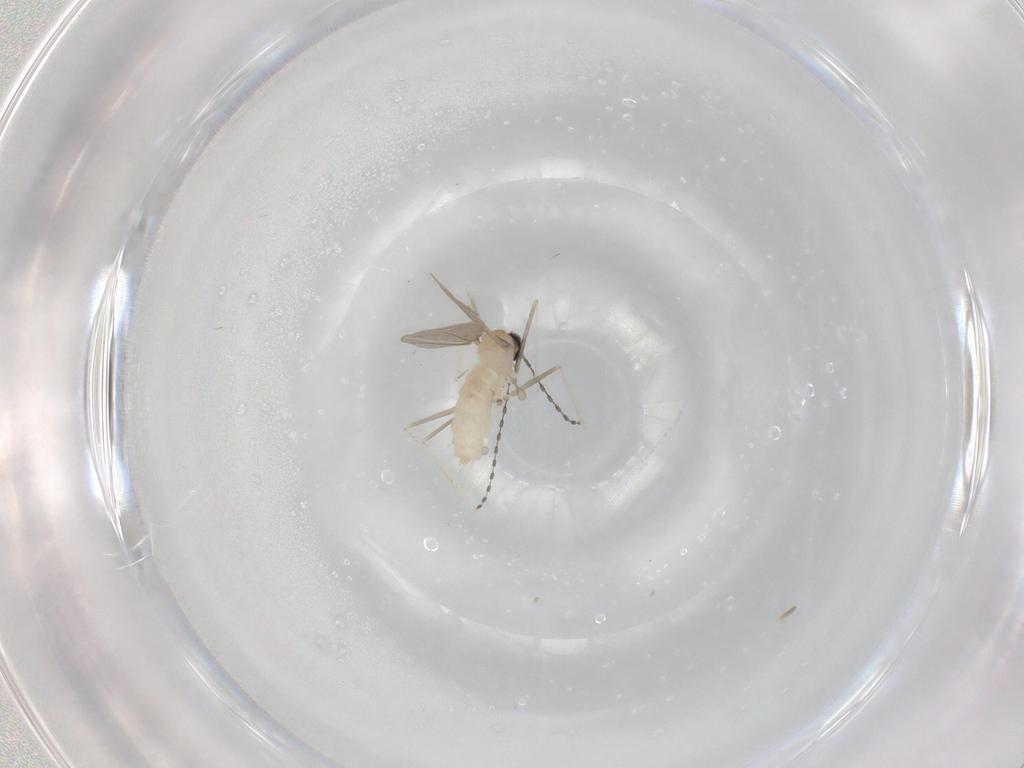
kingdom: Animalia
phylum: Arthropoda
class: Insecta
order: Diptera
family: Cecidomyiidae
